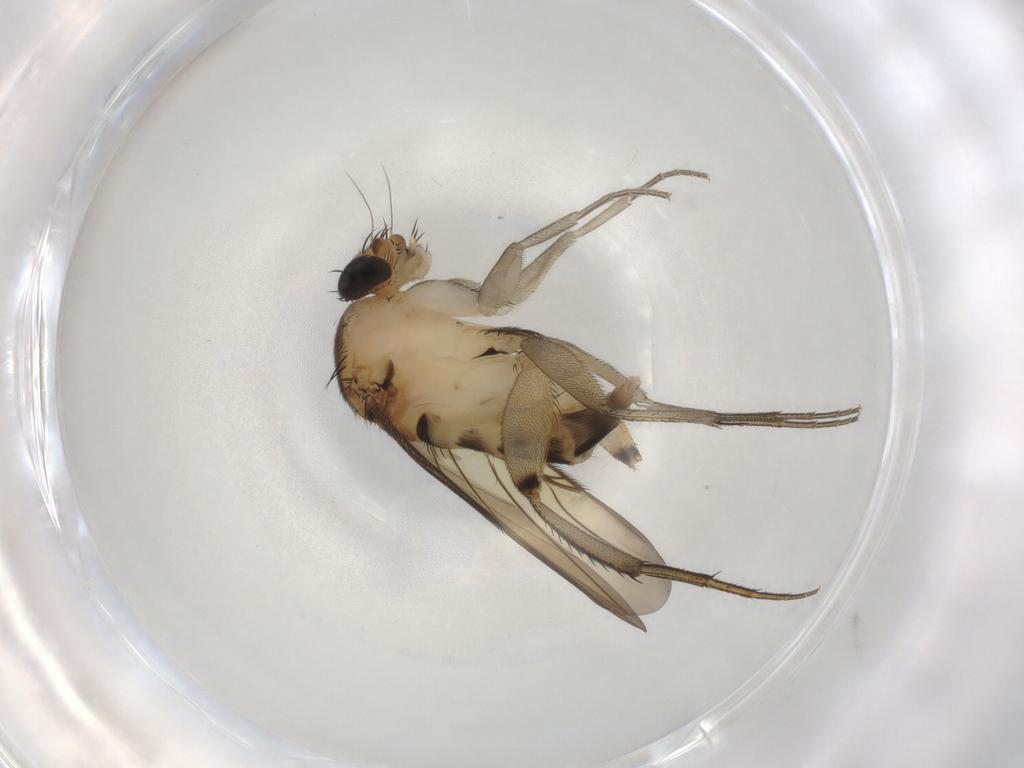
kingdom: Animalia
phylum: Arthropoda
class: Insecta
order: Diptera
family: Phoridae
